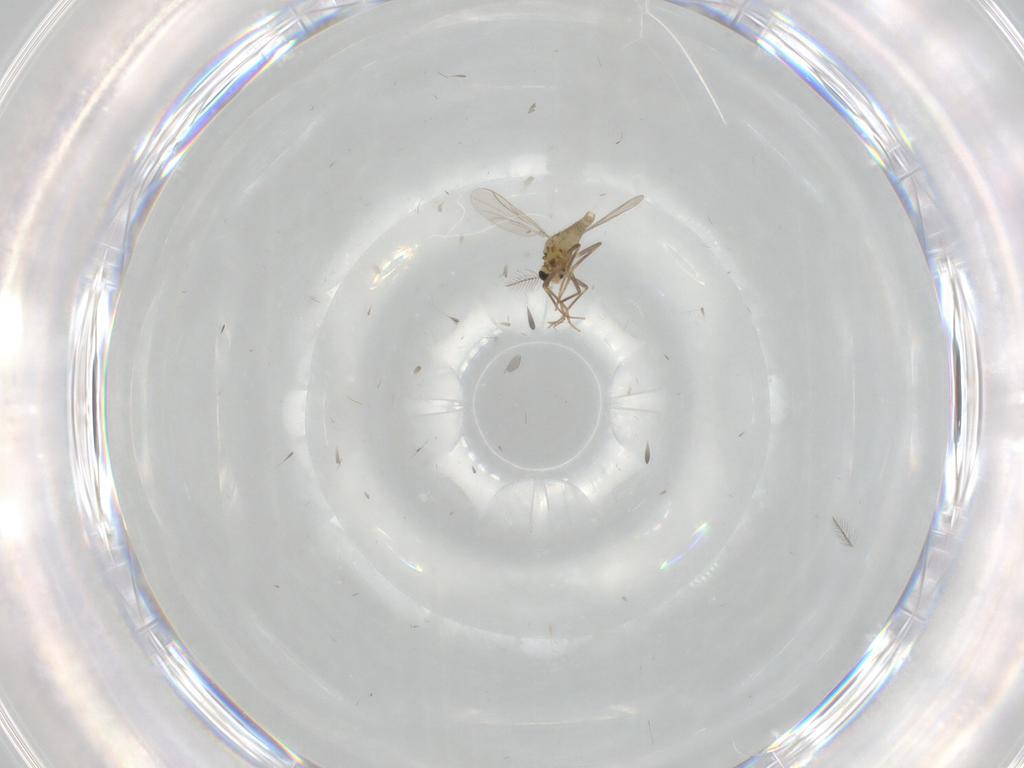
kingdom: Animalia
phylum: Arthropoda
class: Insecta
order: Diptera
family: Chironomidae
